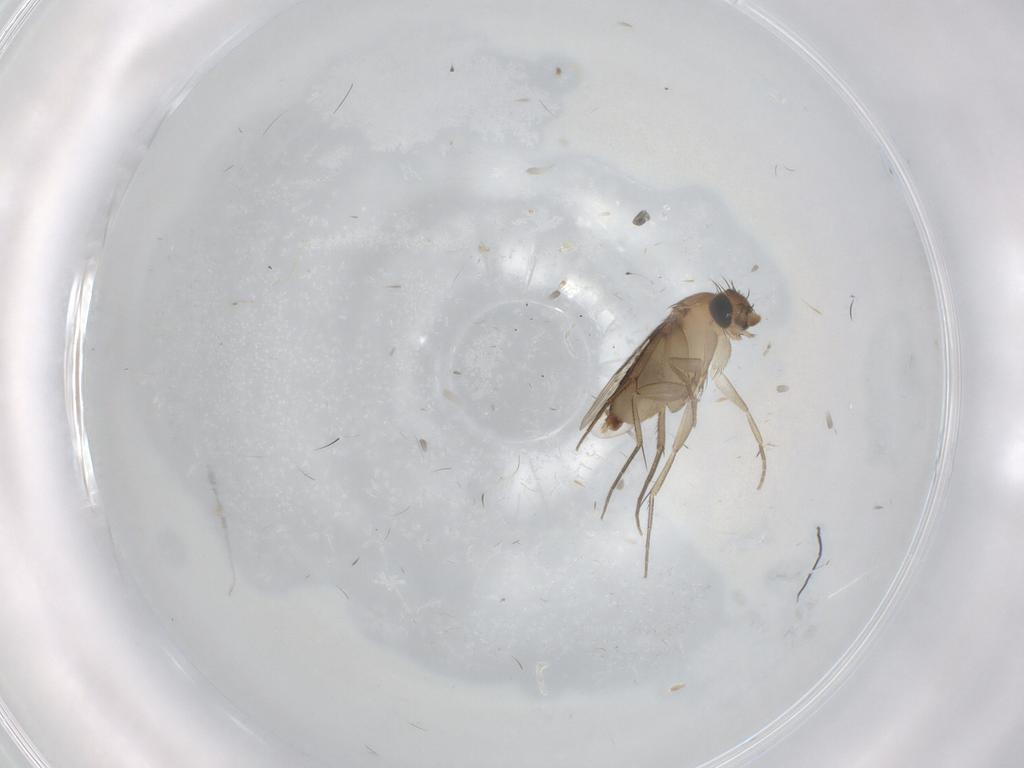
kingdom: Animalia
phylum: Arthropoda
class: Insecta
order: Diptera
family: Phoridae
